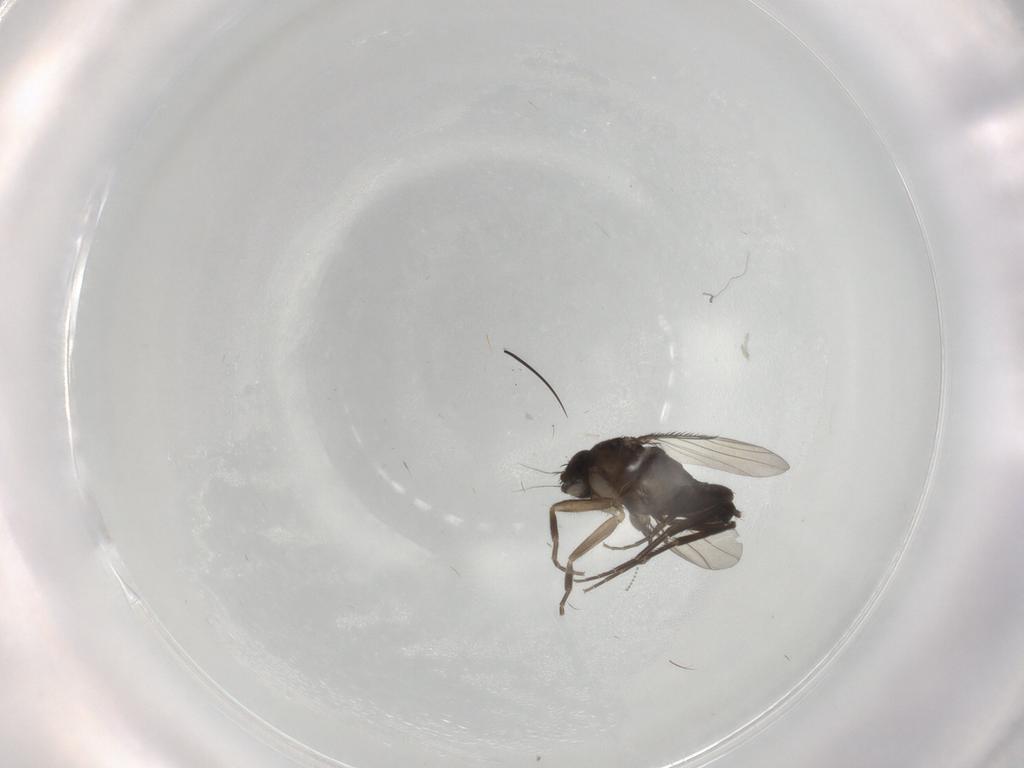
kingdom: Animalia
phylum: Arthropoda
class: Insecta
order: Diptera
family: Phoridae
